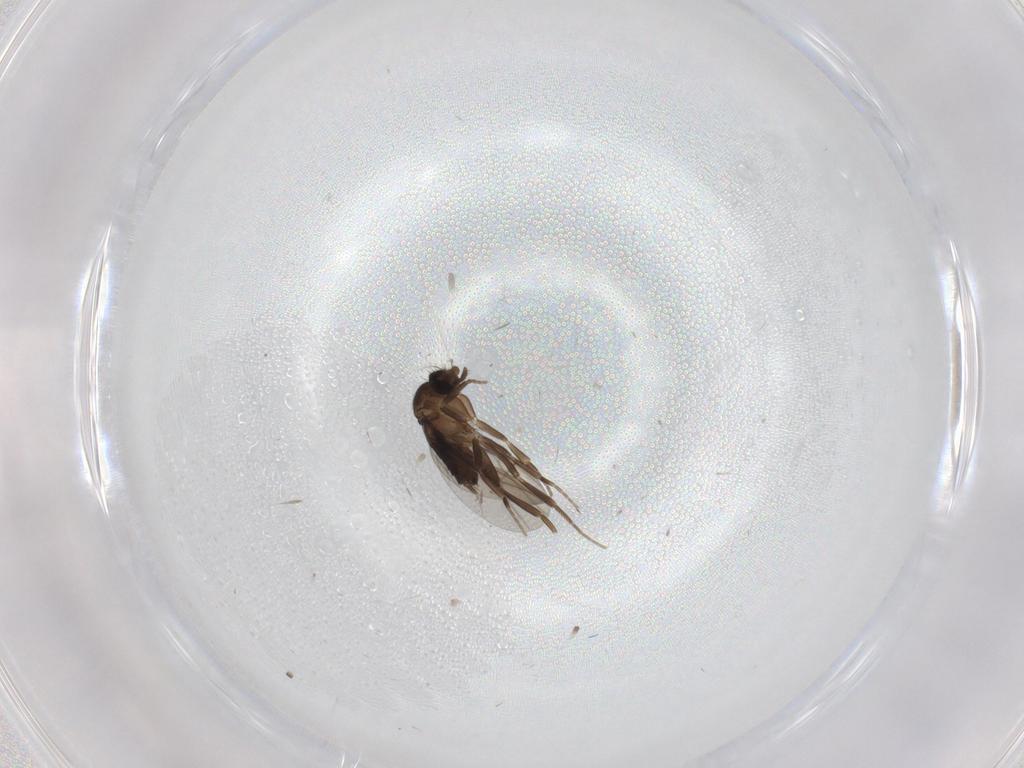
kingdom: Animalia
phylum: Arthropoda
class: Insecta
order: Diptera
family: Phoridae
